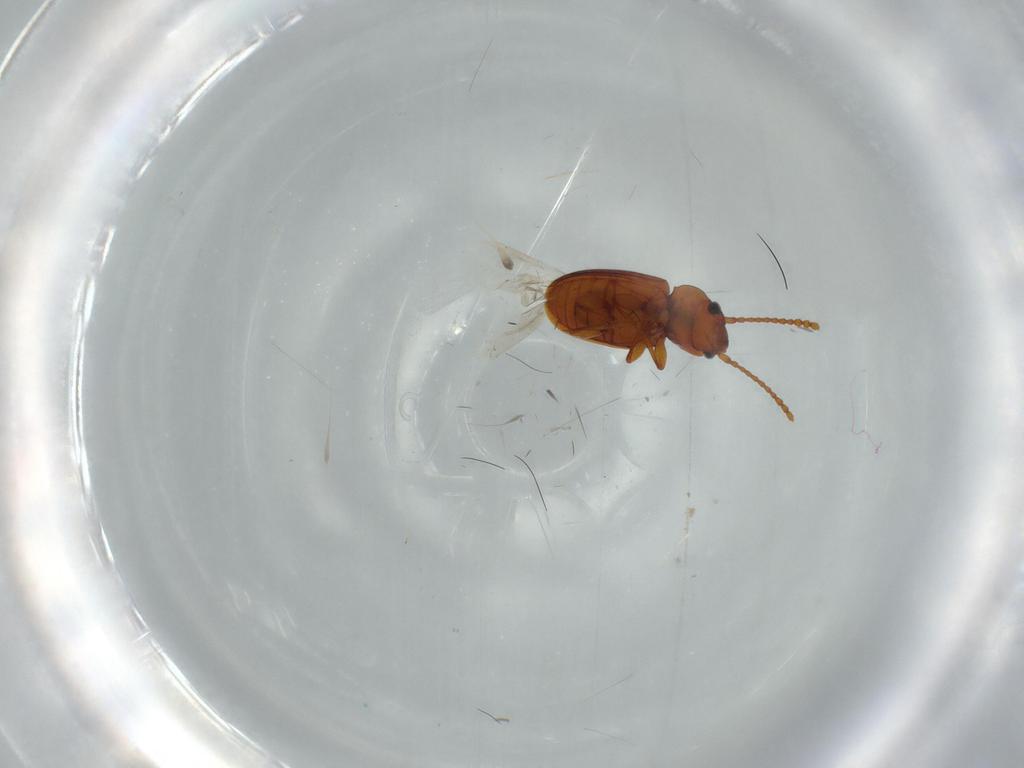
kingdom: Animalia
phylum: Arthropoda
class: Insecta
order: Coleoptera
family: Laemophloeidae
